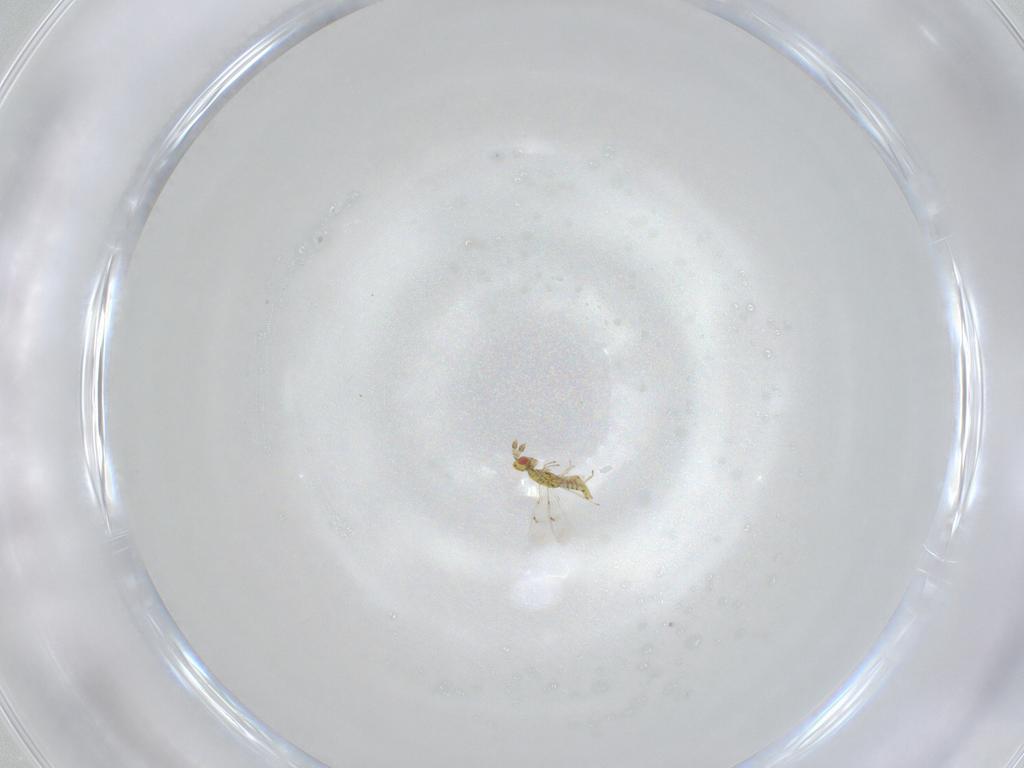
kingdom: Animalia
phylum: Arthropoda
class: Insecta
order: Hymenoptera
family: Eulophidae
